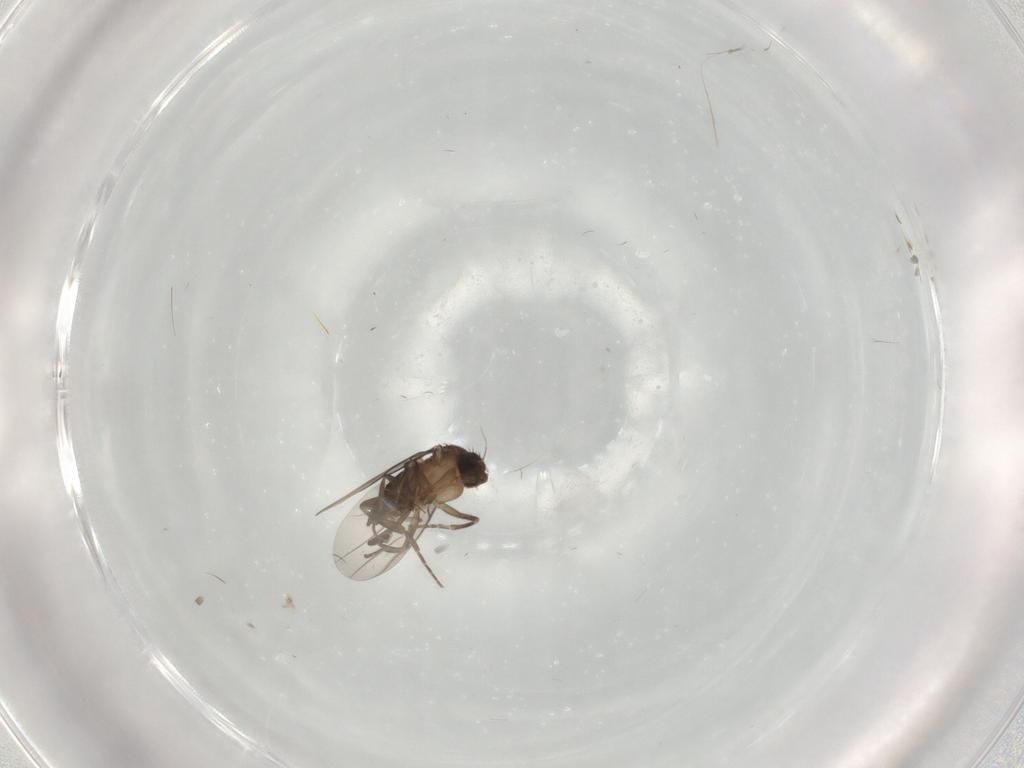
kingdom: Animalia
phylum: Arthropoda
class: Insecta
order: Diptera
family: Phoridae
